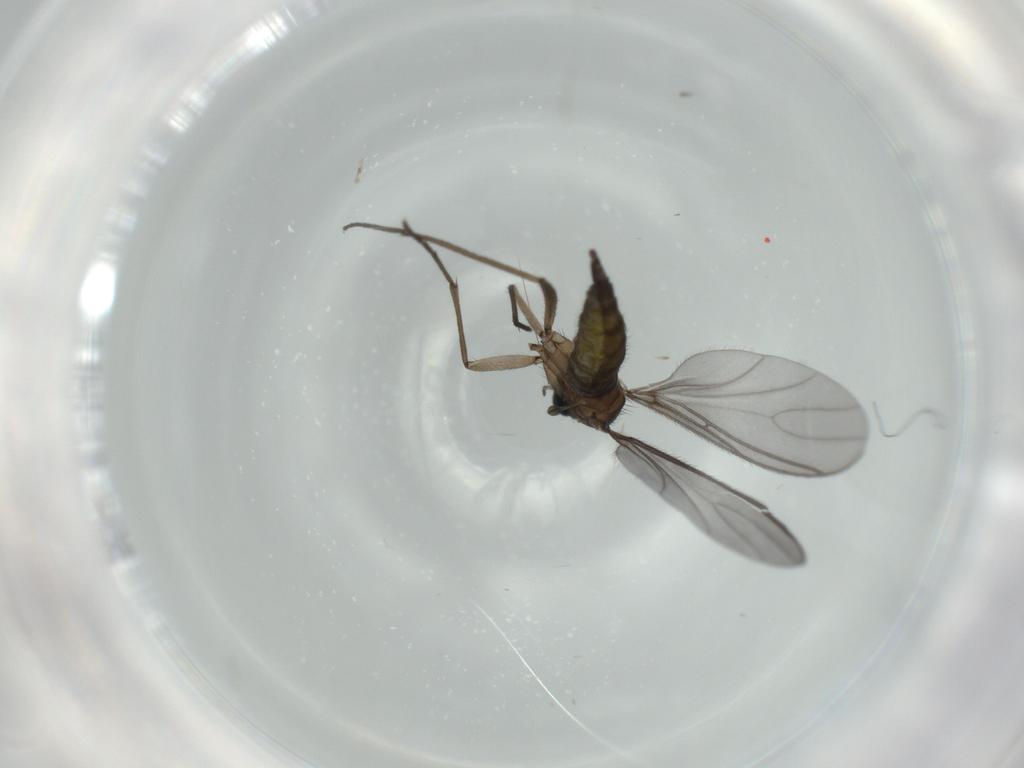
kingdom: Animalia
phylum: Arthropoda
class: Insecta
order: Diptera
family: Sciaridae
